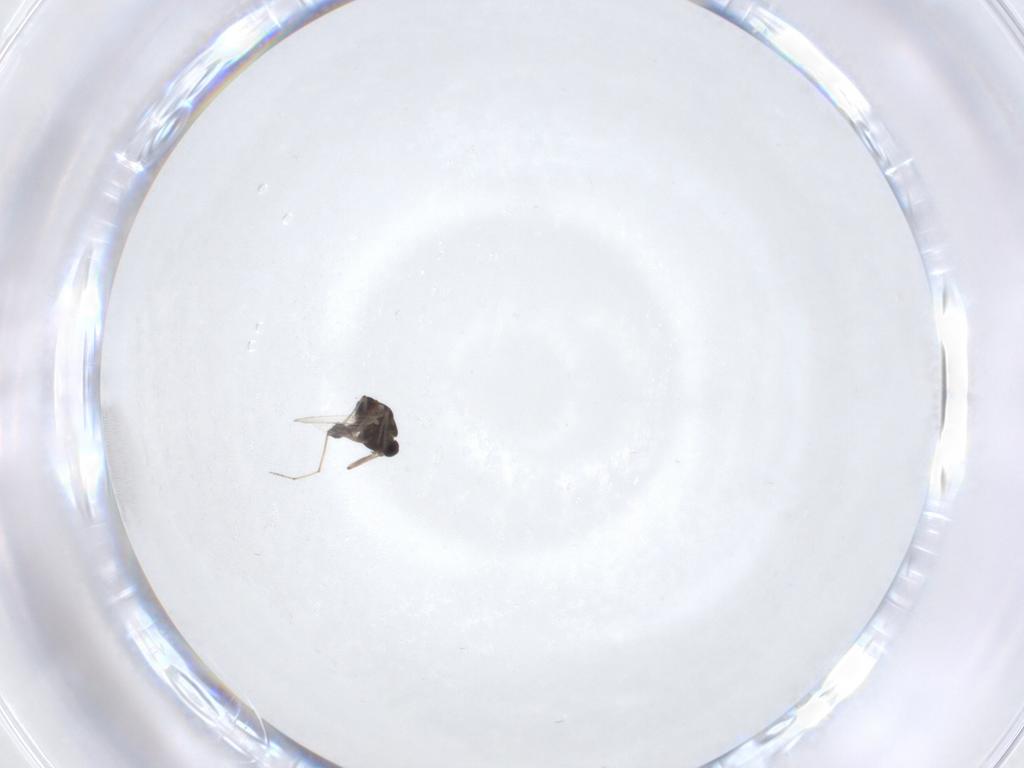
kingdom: Animalia
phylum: Arthropoda
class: Insecta
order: Diptera
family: Chironomidae
